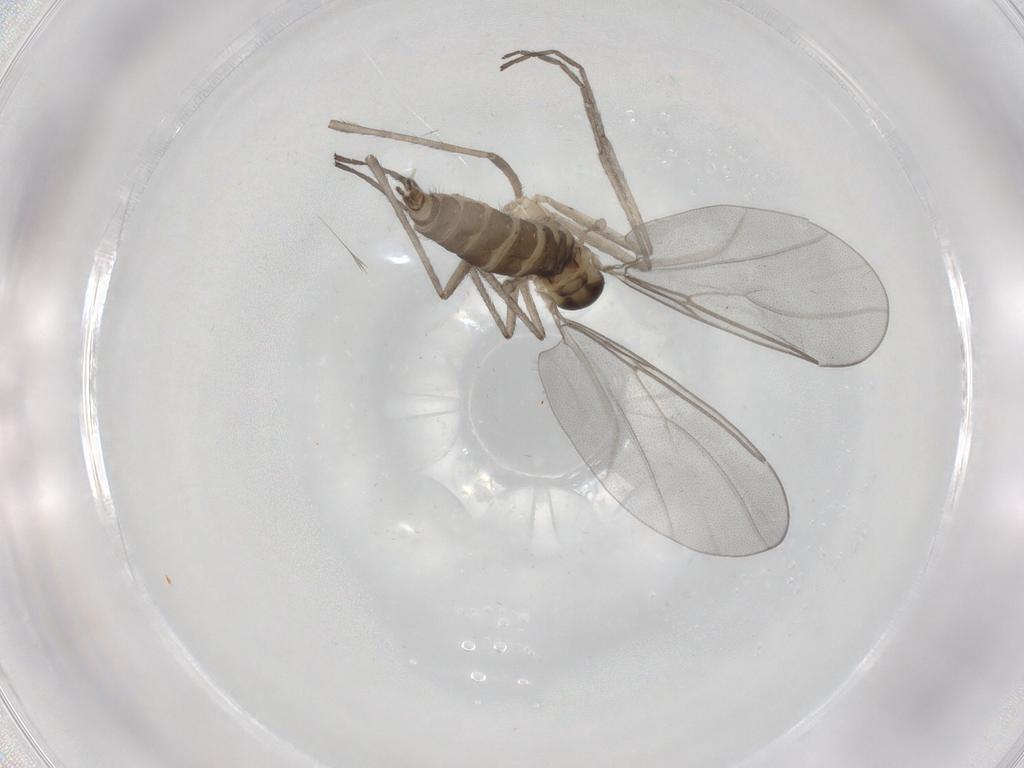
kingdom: Animalia
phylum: Arthropoda
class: Insecta
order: Diptera
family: Cecidomyiidae
